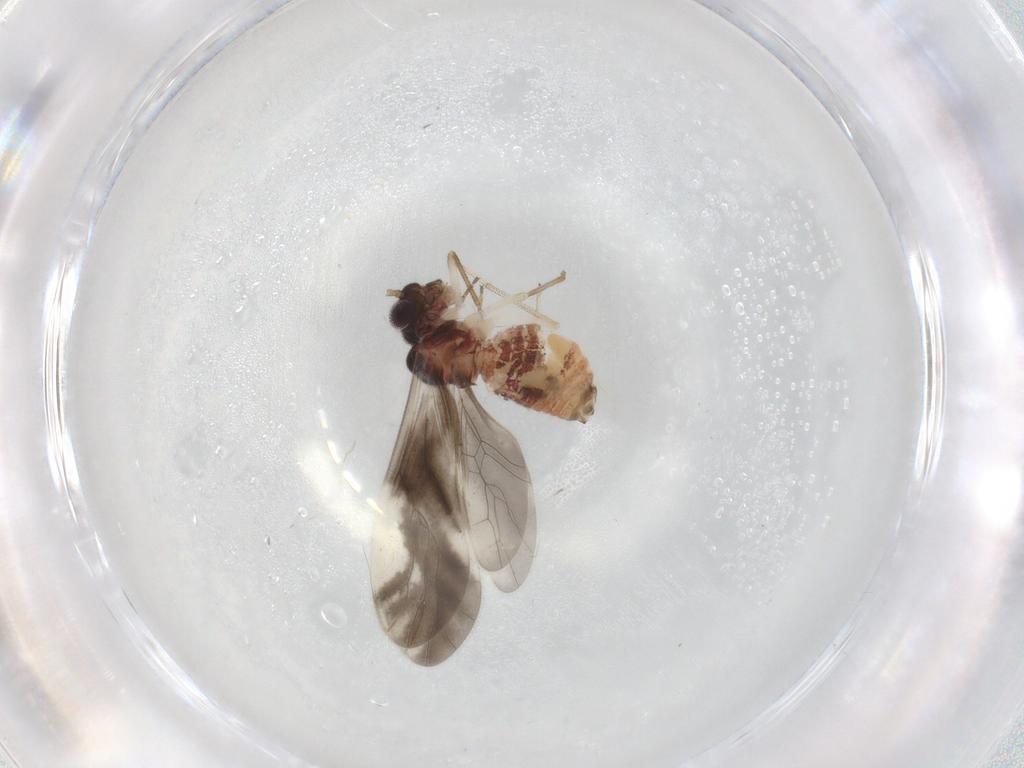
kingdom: Animalia
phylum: Arthropoda
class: Insecta
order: Psocodea
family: Caeciliusidae
